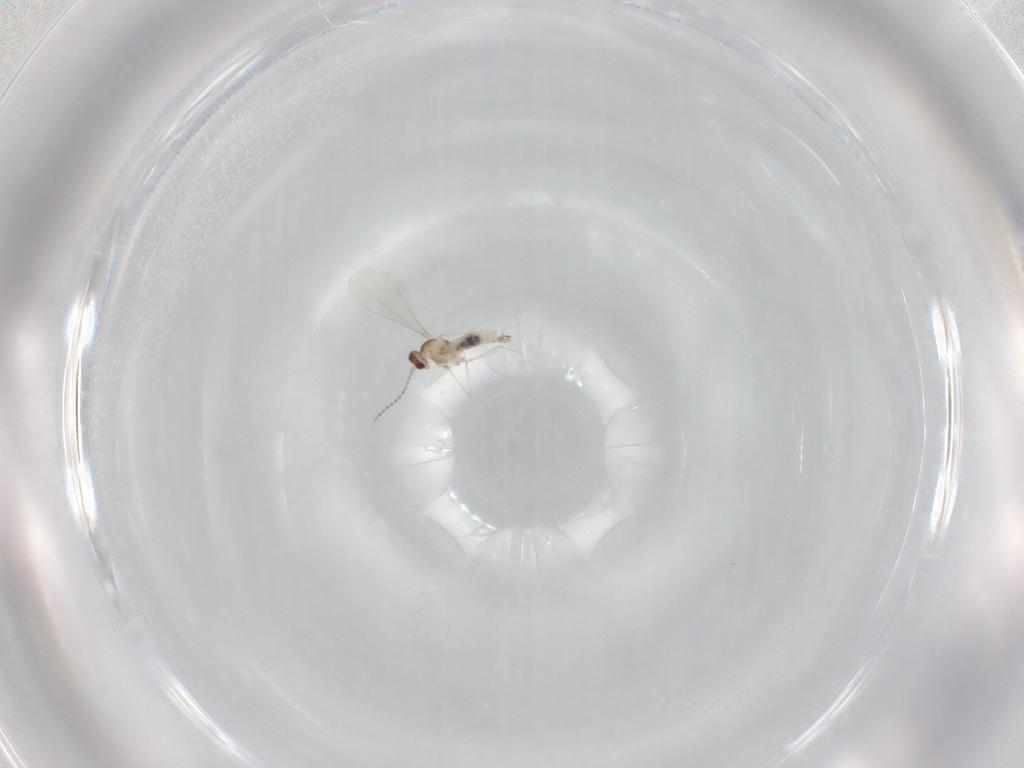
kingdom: Animalia
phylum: Arthropoda
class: Insecta
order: Diptera
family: Cecidomyiidae
